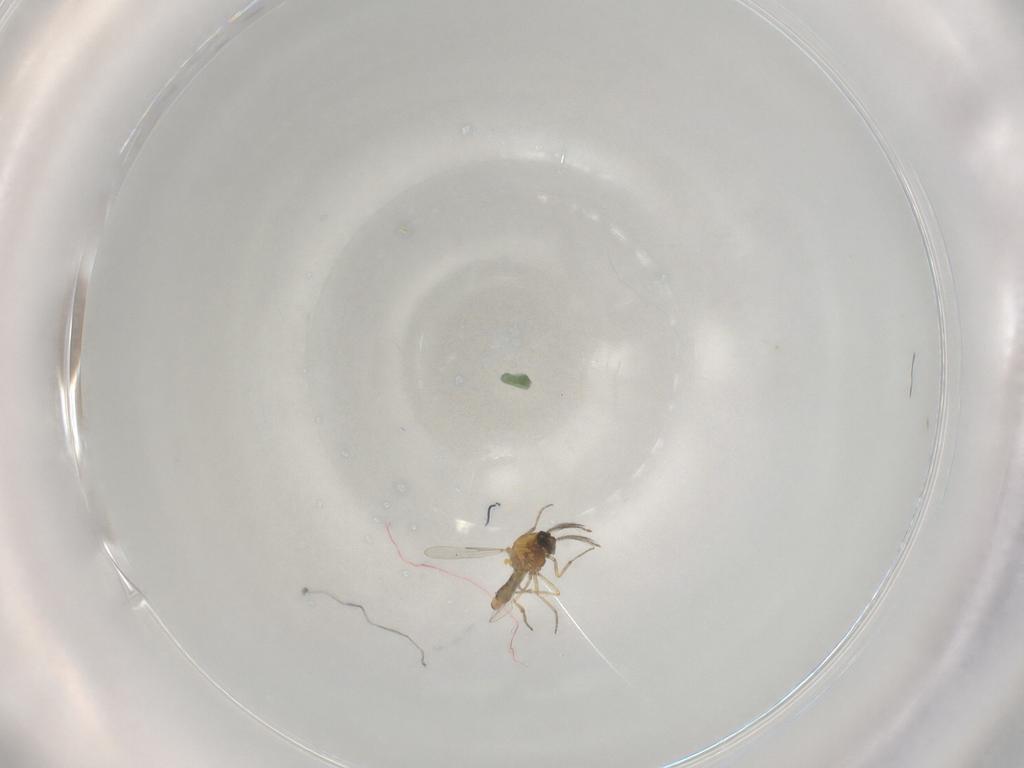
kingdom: Animalia
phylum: Arthropoda
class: Insecta
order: Diptera
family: Ceratopogonidae
